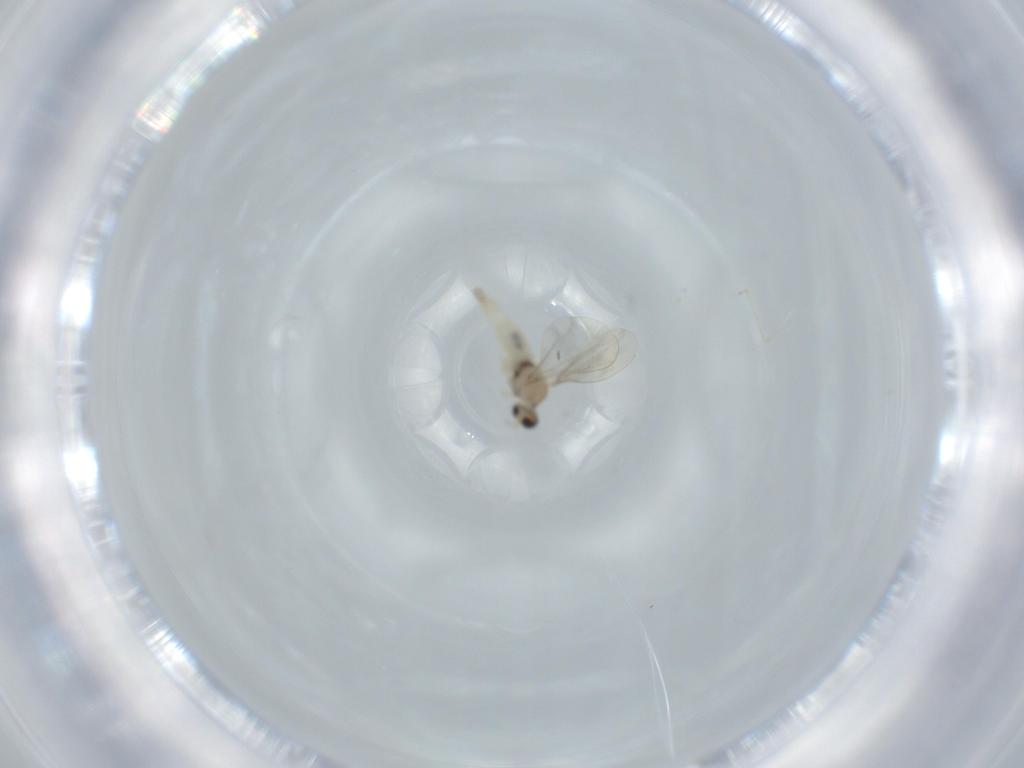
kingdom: Animalia
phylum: Arthropoda
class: Insecta
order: Diptera
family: Cecidomyiidae
